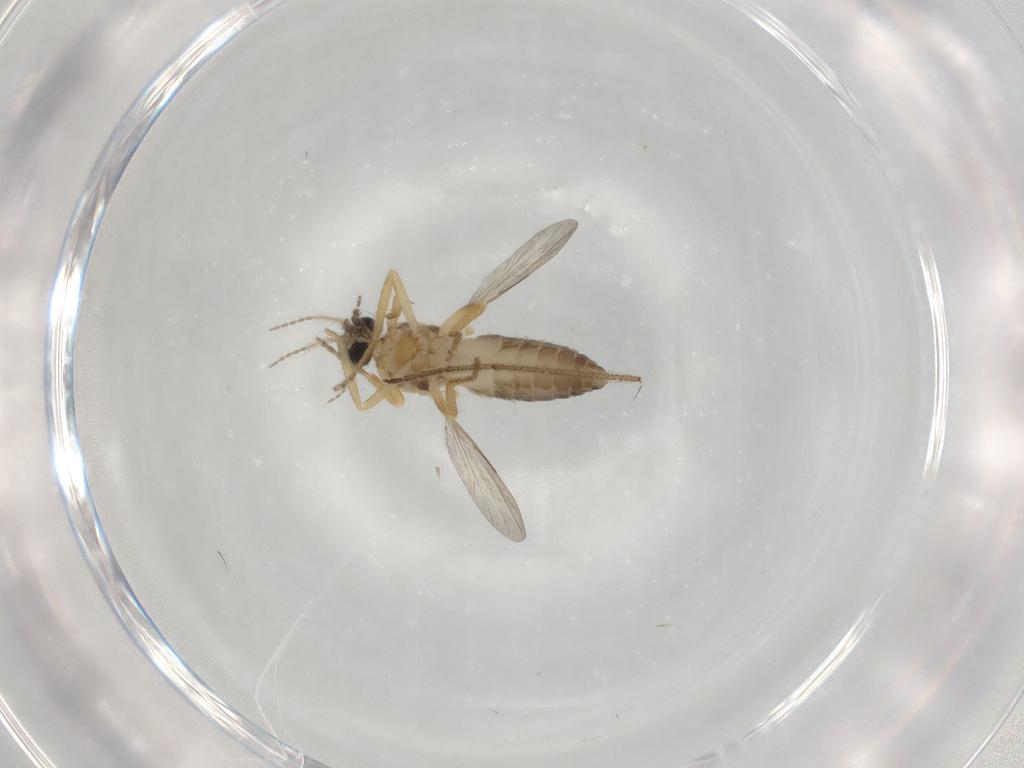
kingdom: Animalia
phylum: Arthropoda
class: Insecta
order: Diptera
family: Ceratopogonidae
